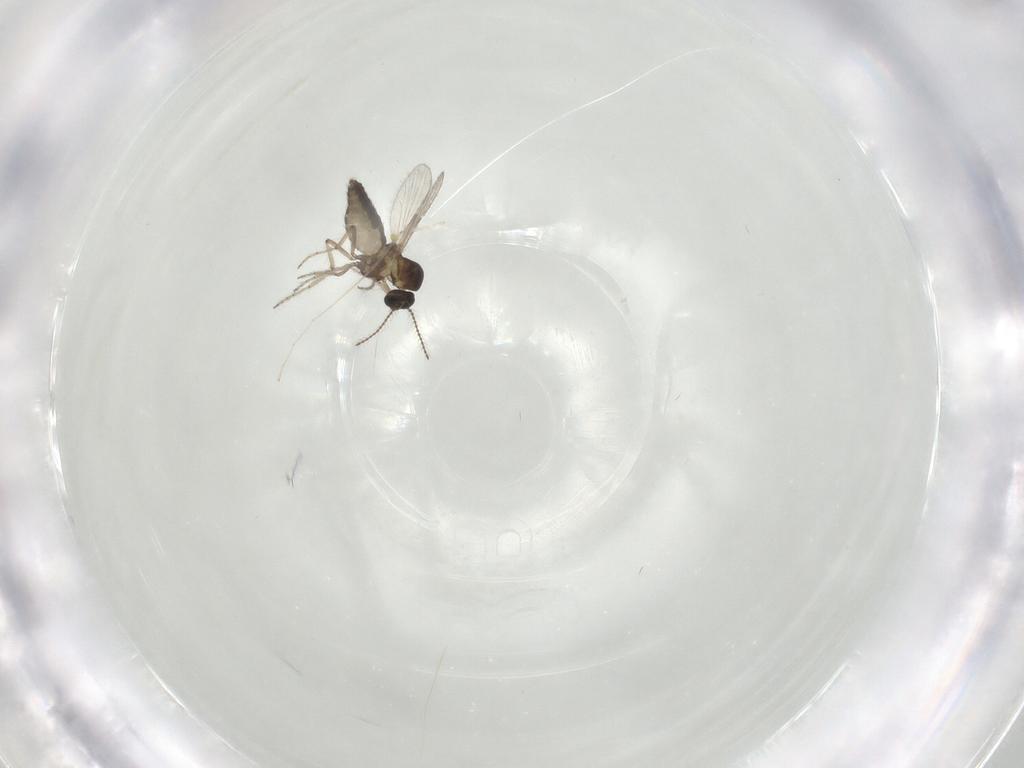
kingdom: Animalia
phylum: Arthropoda
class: Insecta
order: Diptera
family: Ceratopogonidae
